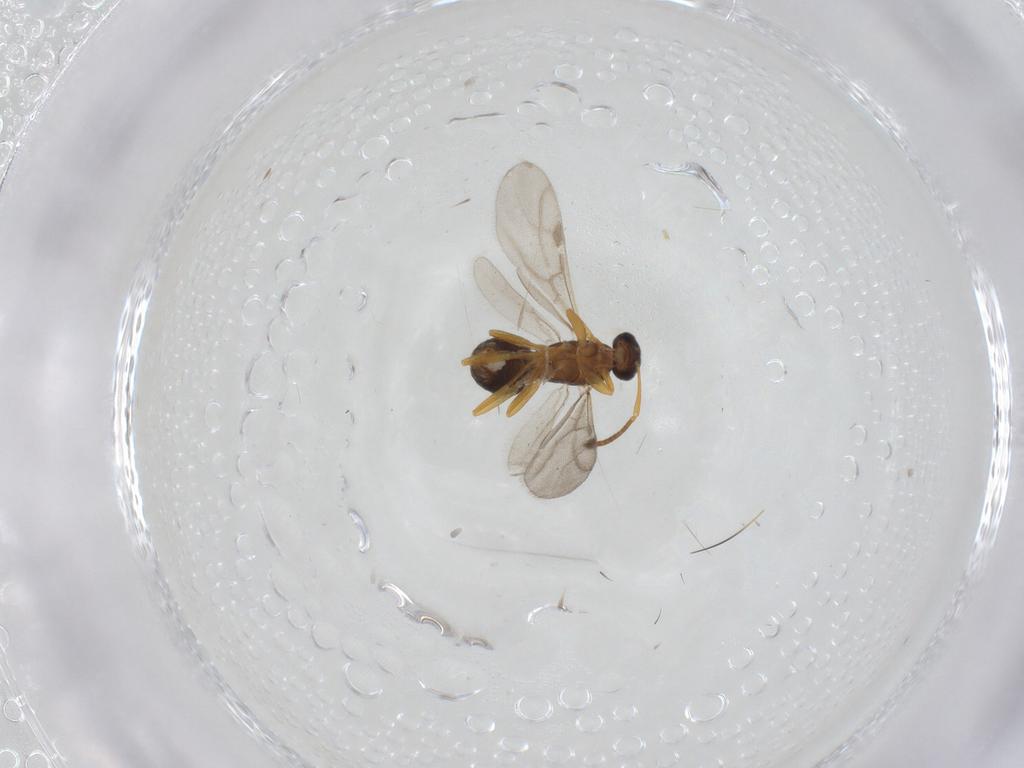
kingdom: Animalia
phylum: Arthropoda
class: Insecta
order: Hymenoptera
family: Formicidae
